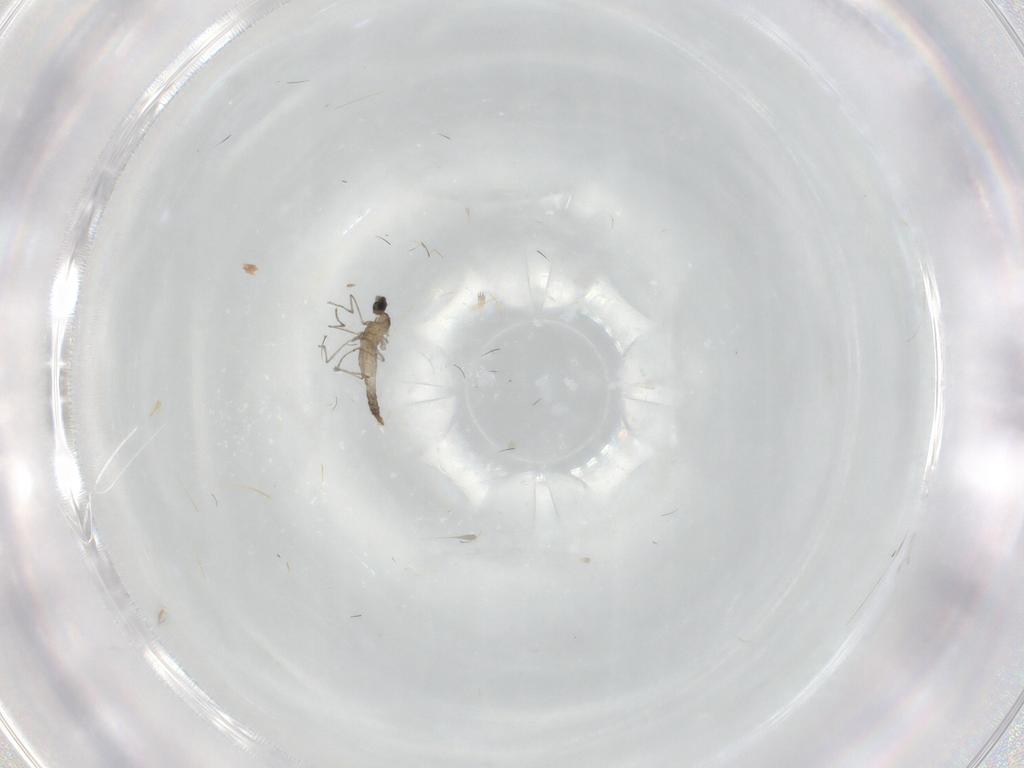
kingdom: Animalia
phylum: Arthropoda
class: Insecta
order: Diptera
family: Cecidomyiidae
